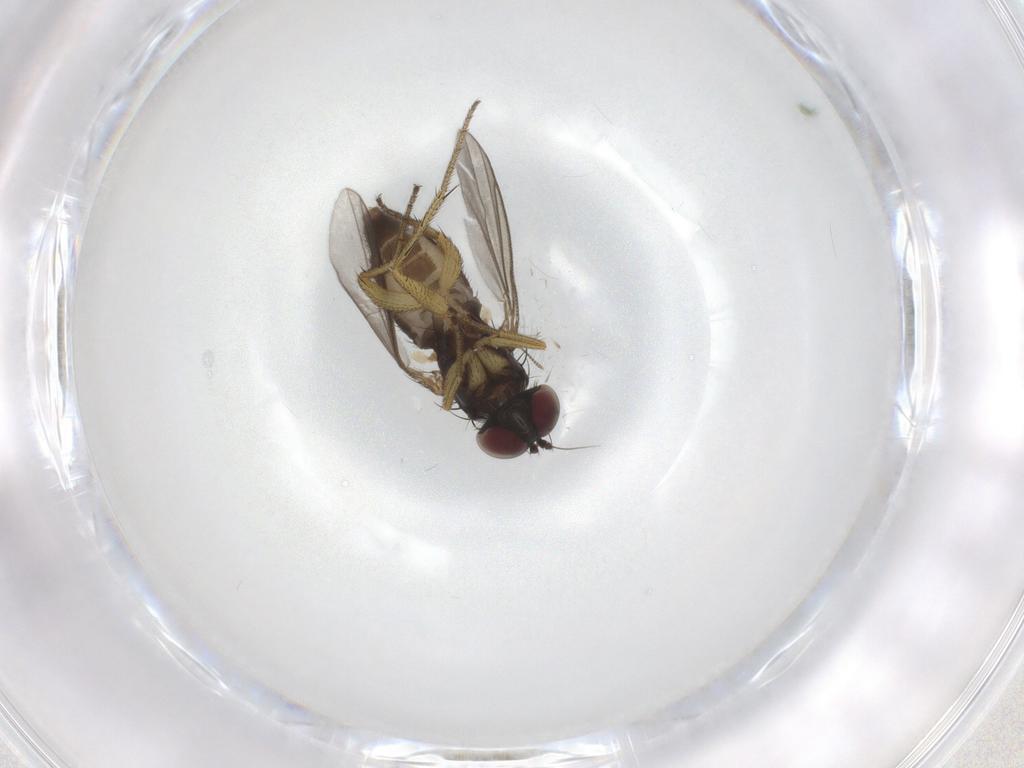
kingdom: Animalia
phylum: Arthropoda
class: Insecta
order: Diptera
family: Dolichopodidae
